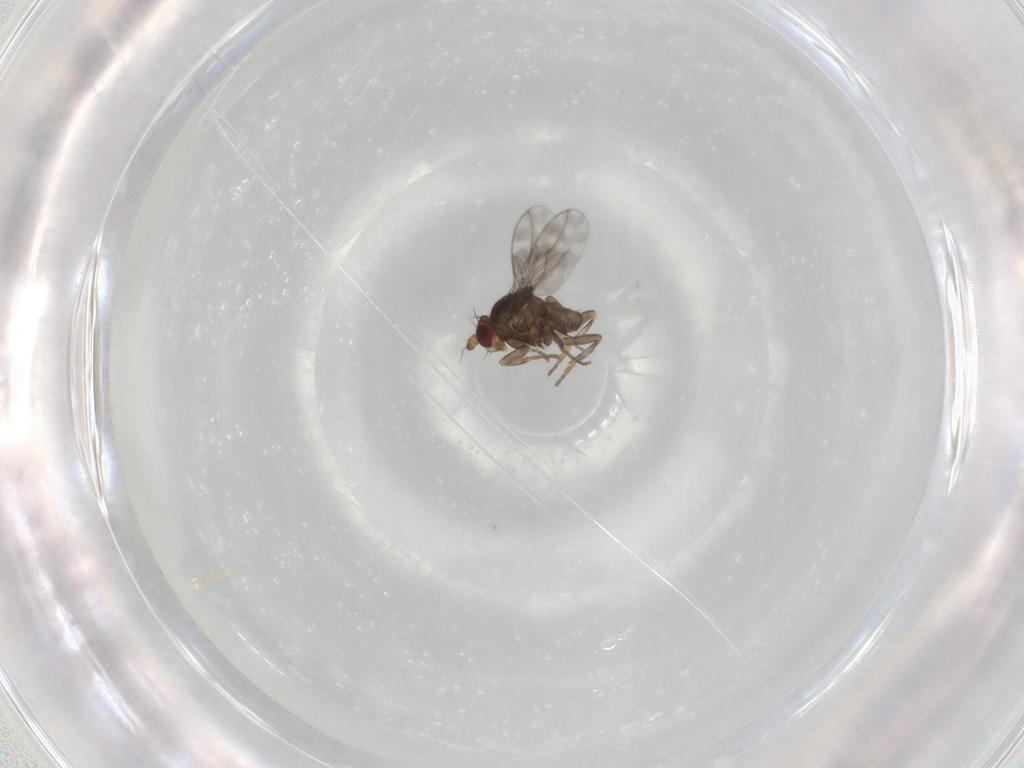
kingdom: Animalia
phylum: Arthropoda
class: Insecta
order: Diptera
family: Sphaeroceridae
